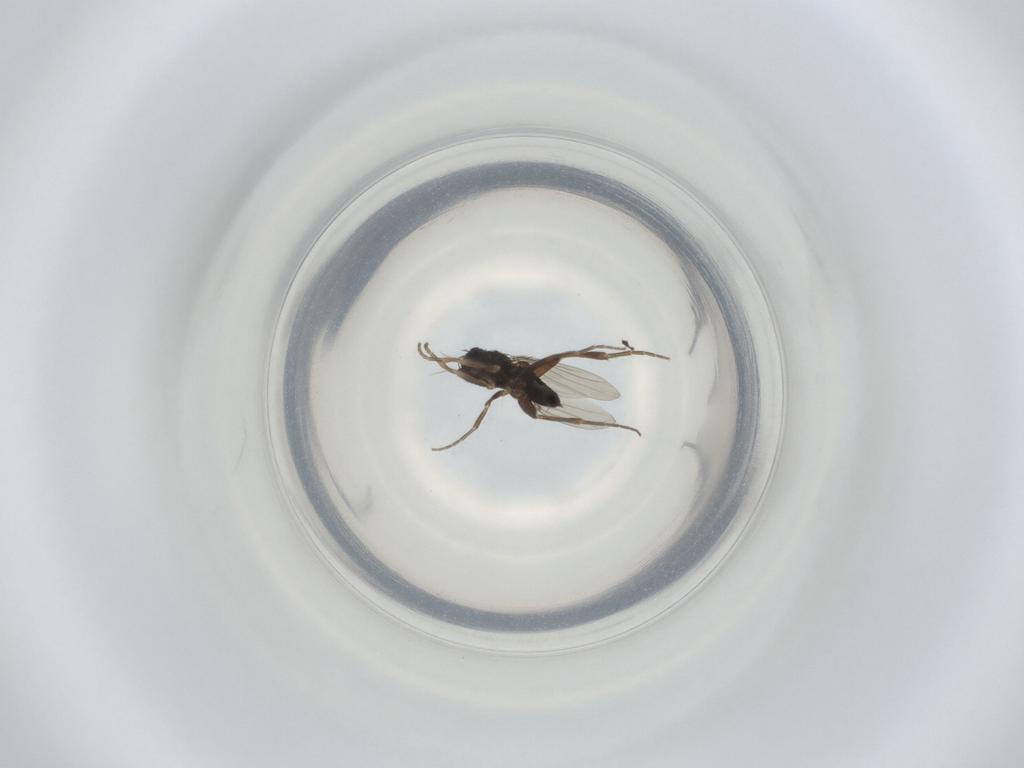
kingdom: Animalia
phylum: Arthropoda
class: Insecta
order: Diptera
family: Phoridae
